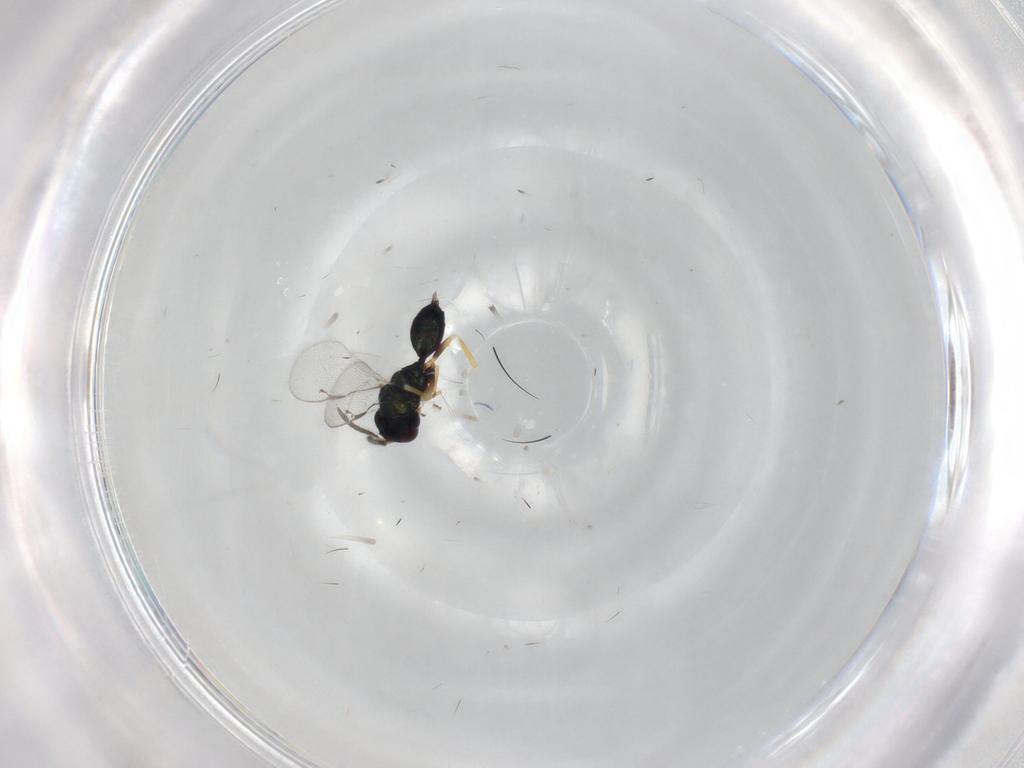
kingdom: Animalia
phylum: Arthropoda
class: Insecta
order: Hymenoptera
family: Pteromalidae
